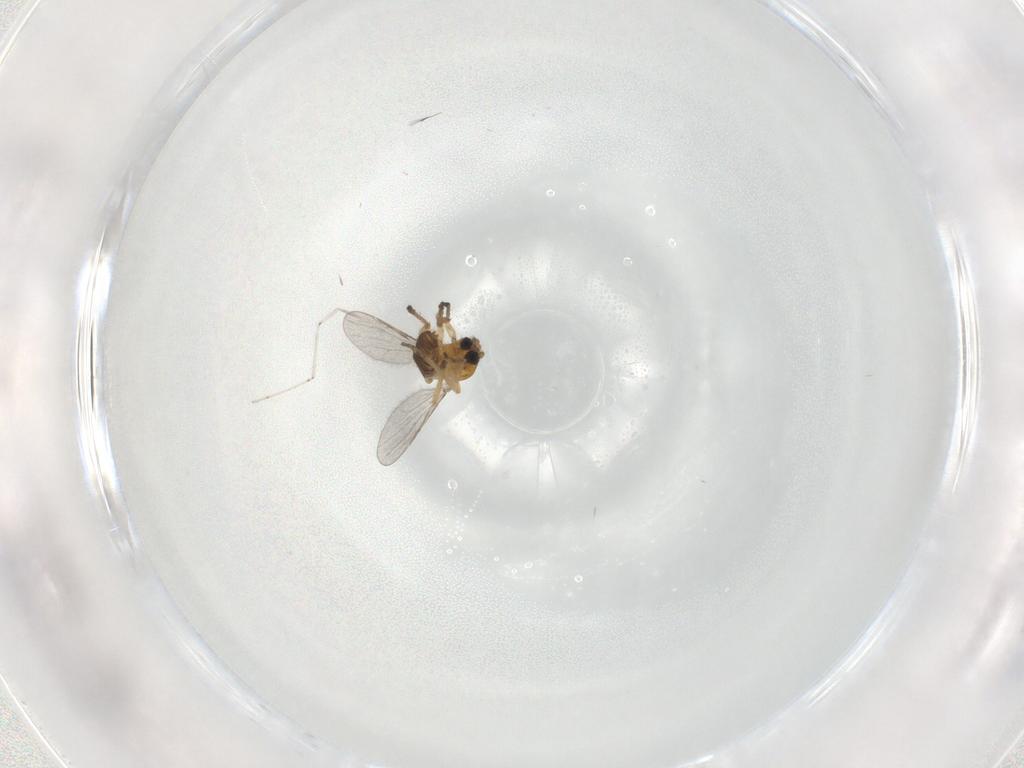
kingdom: Animalia
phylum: Arthropoda
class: Insecta
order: Diptera
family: Ceratopogonidae
